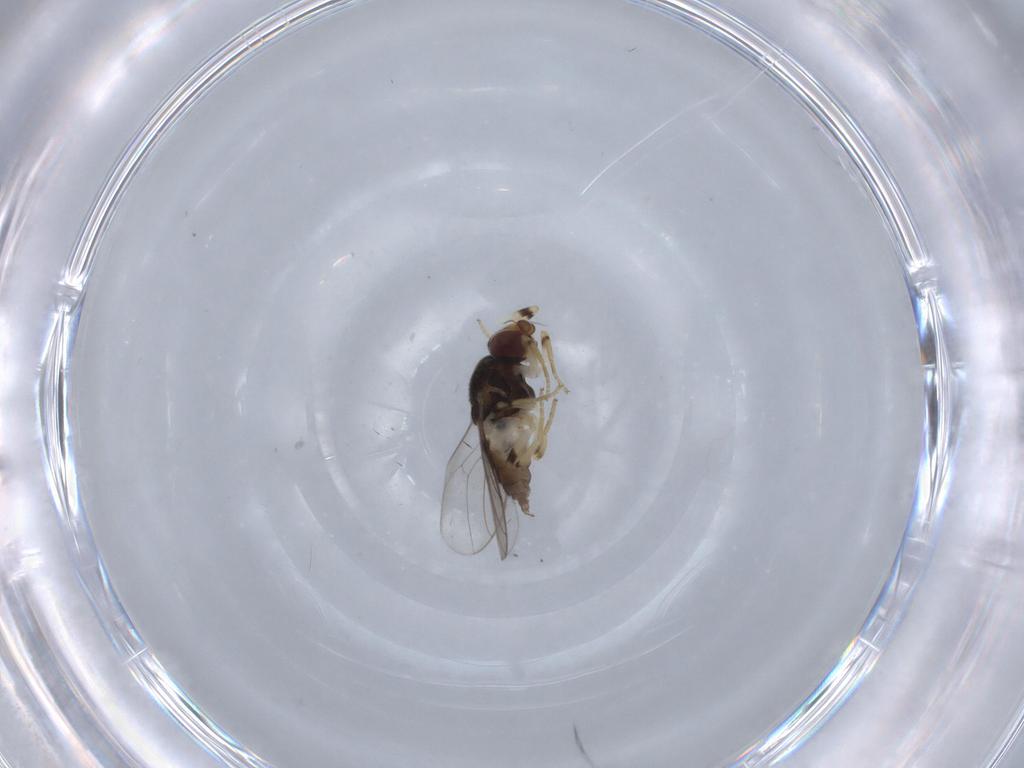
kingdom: Animalia
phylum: Arthropoda
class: Insecta
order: Diptera
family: Chloropidae
